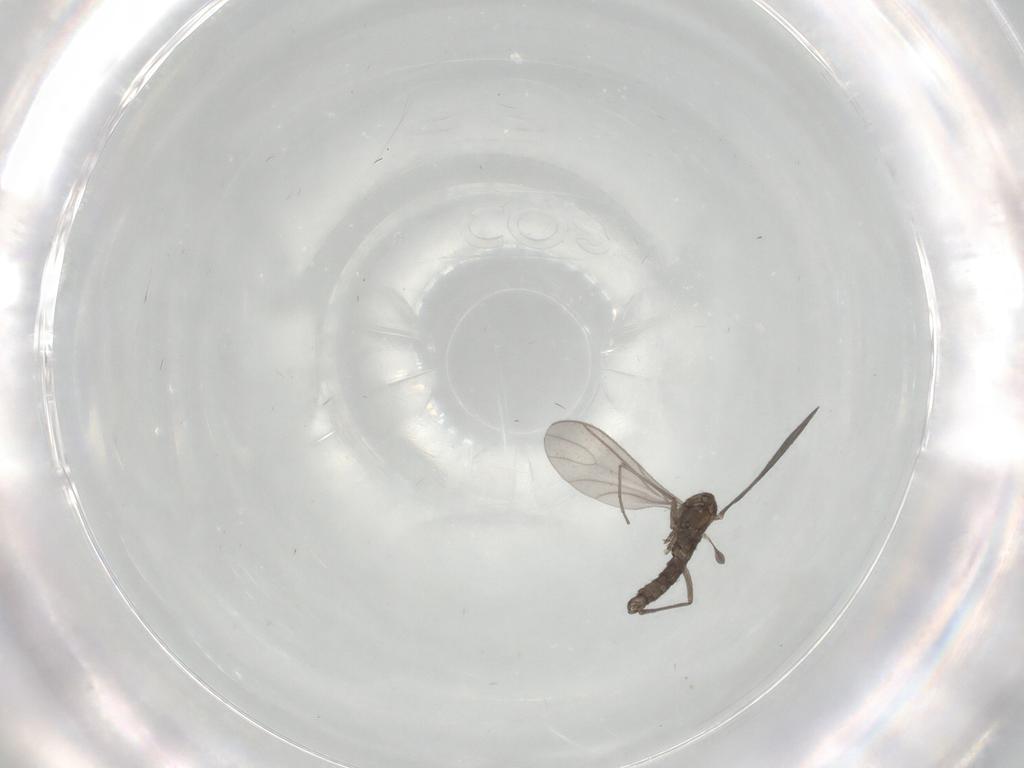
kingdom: Animalia
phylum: Arthropoda
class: Insecta
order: Diptera
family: Sciaridae
